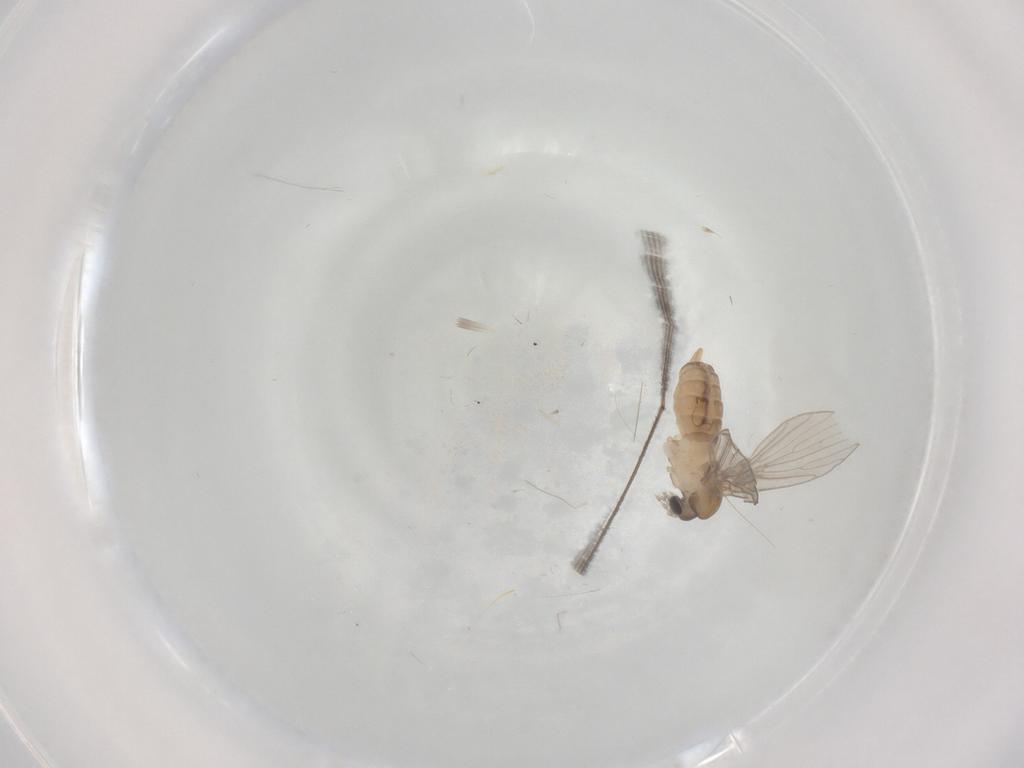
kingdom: Animalia
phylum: Arthropoda
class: Insecta
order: Diptera
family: Psychodidae
